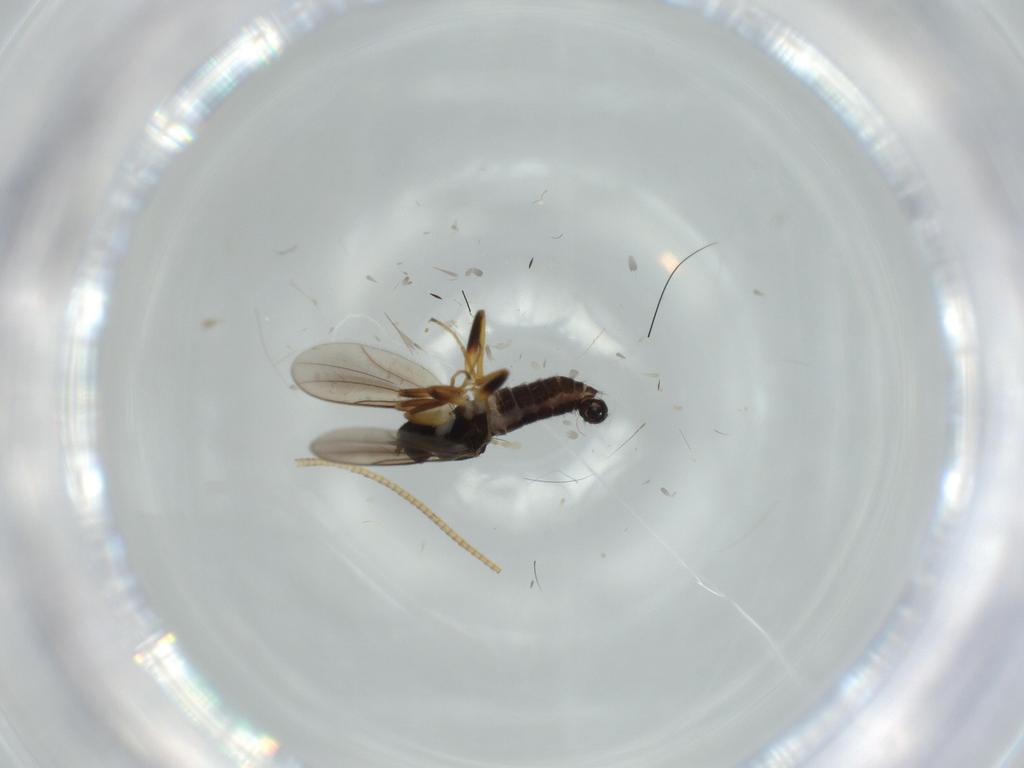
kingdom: Animalia
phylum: Arthropoda
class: Insecta
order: Diptera
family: Hybotidae
